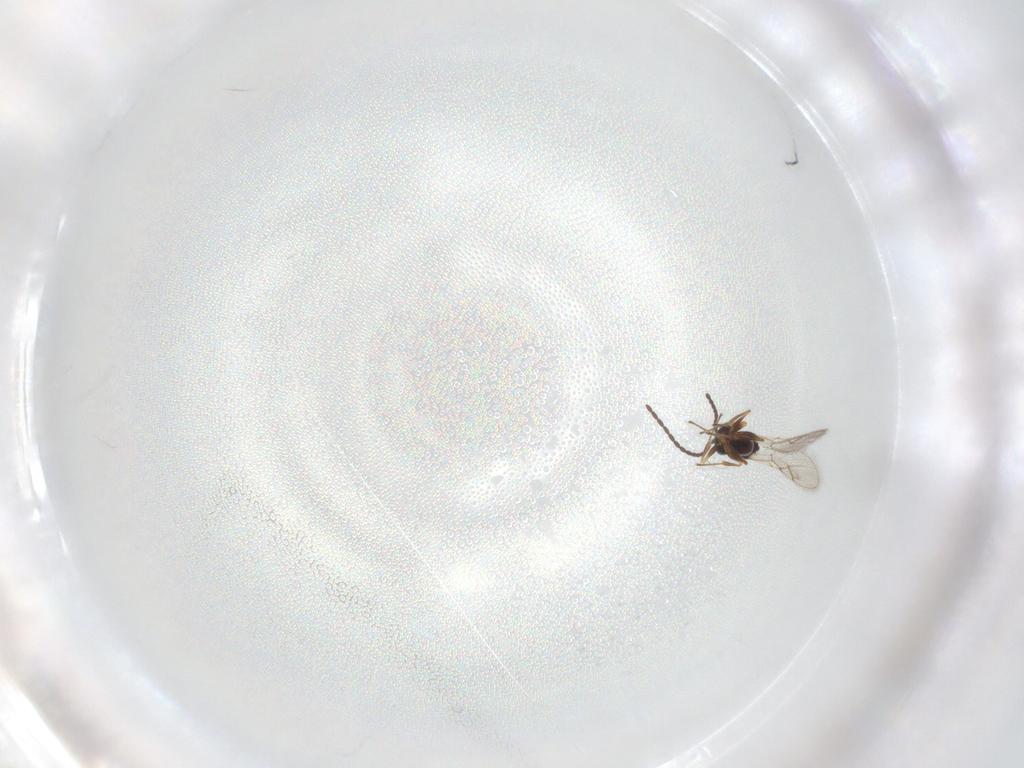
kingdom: Animalia
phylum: Arthropoda
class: Insecta
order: Hymenoptera
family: Figitidae
